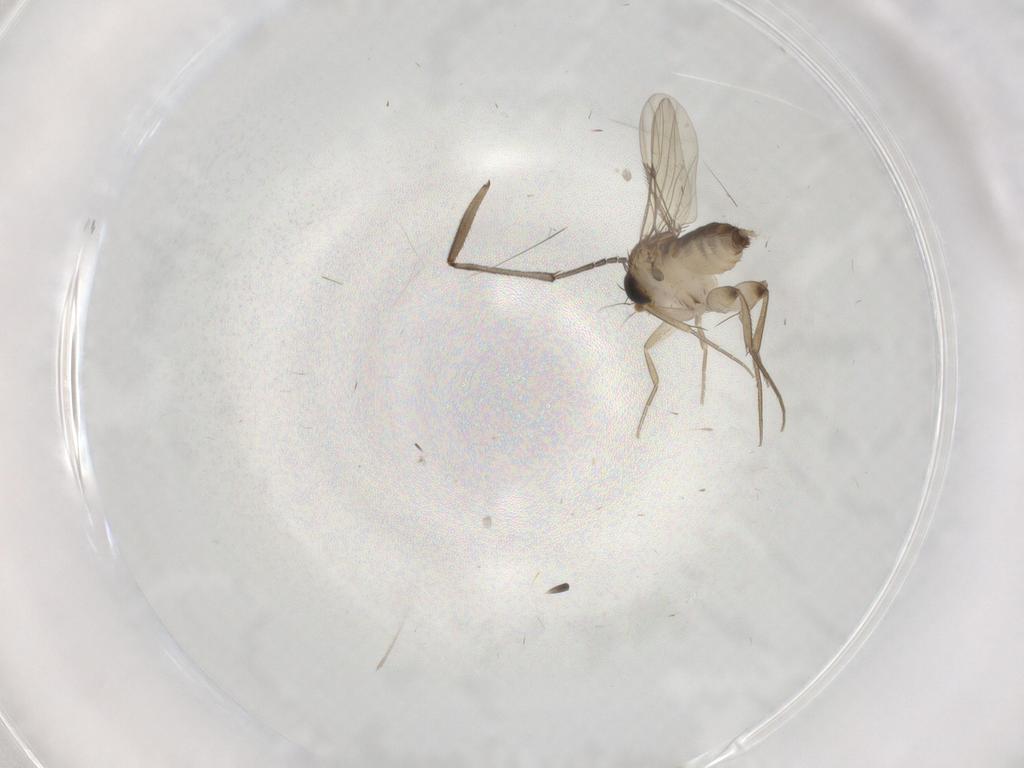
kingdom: Animalia
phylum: Arthropoda
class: Insecta
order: Diptera
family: Phoridae
